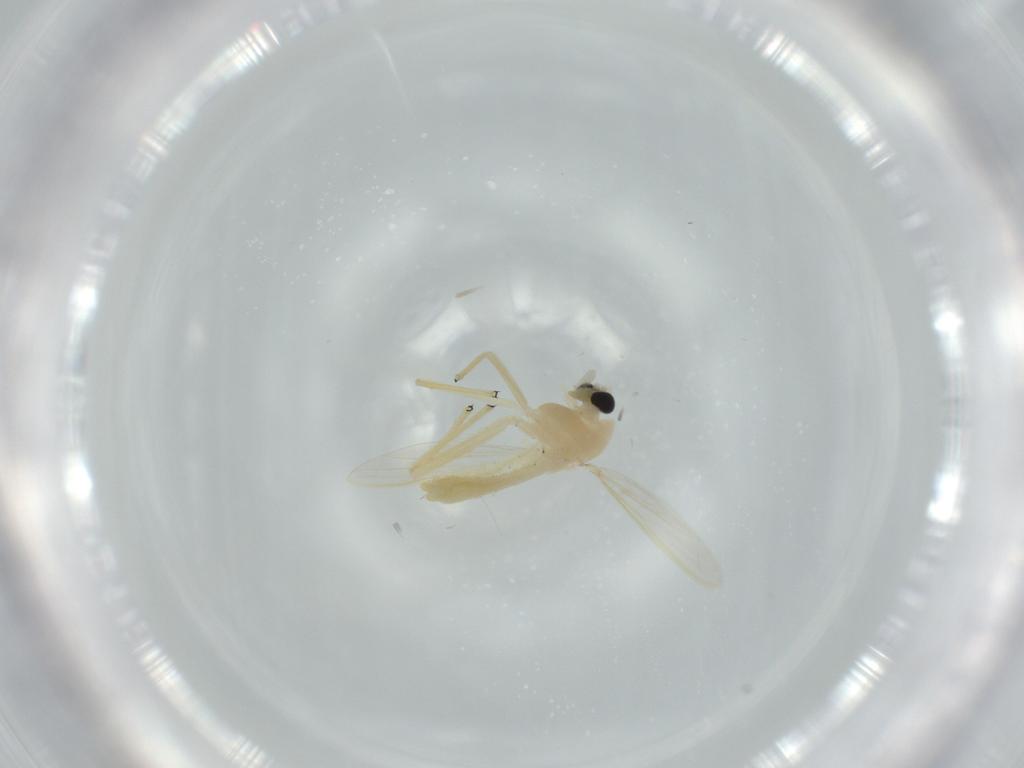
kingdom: Animalia
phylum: Arthropoda
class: Insecta
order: Diptera
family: Chironomidae
